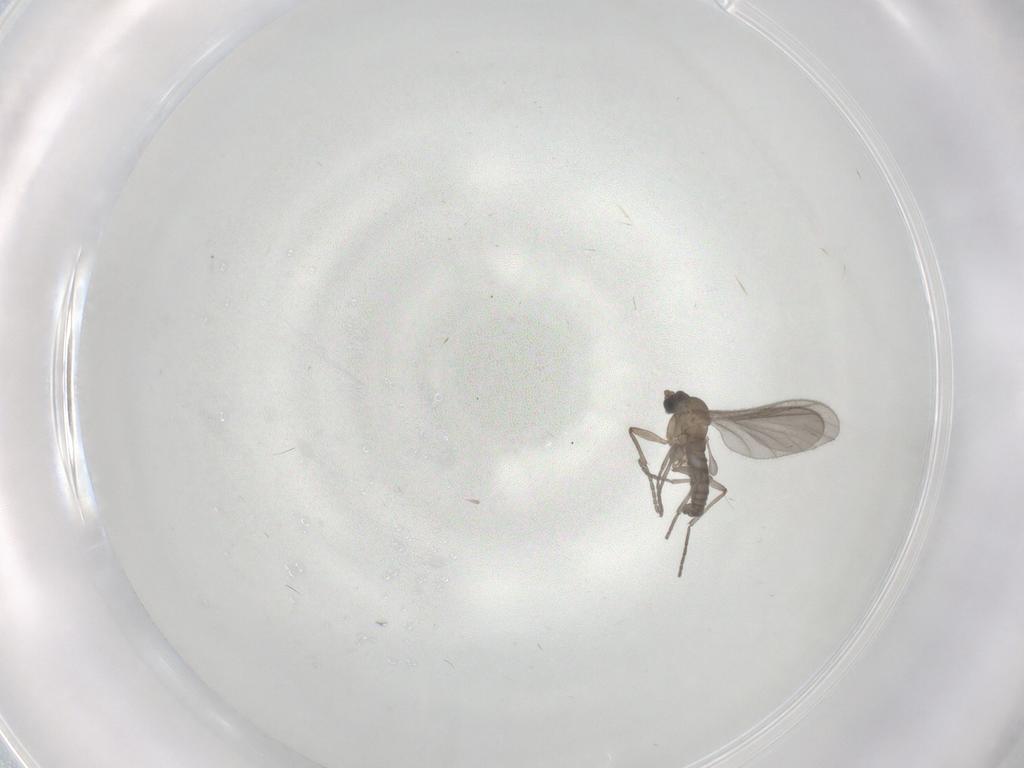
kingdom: Animalia
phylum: Arthropoda
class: Insecta
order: Diptera
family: Sciaridae
